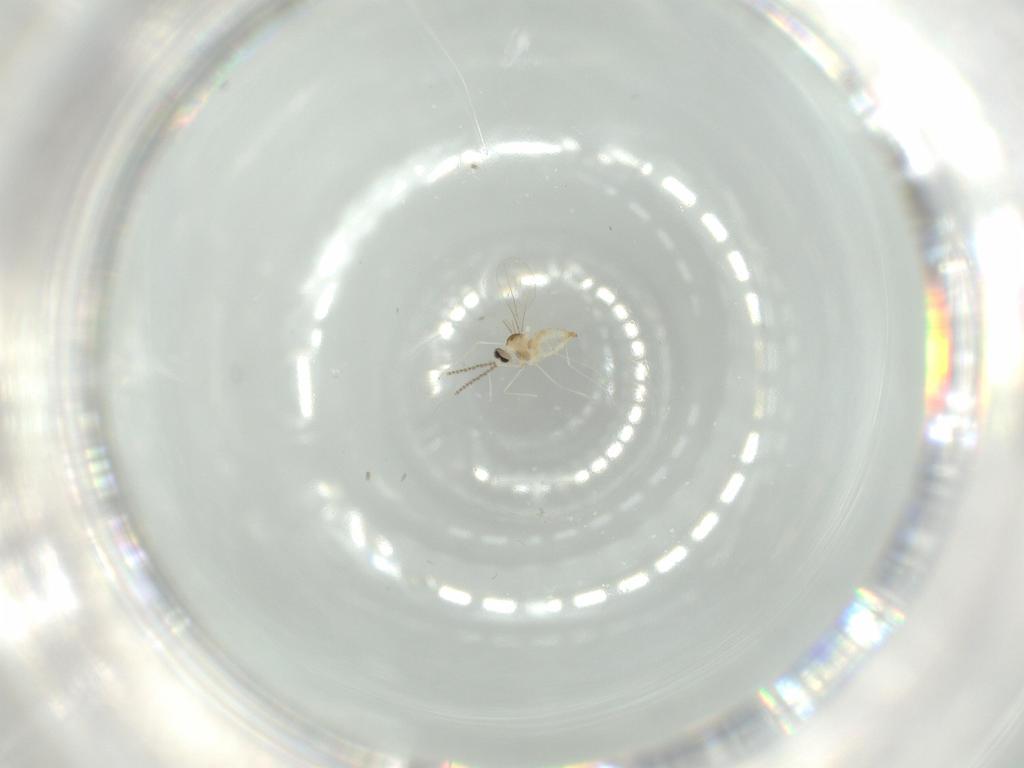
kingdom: Animalia
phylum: Arthropoda
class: Insecta
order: Diptera
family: Cecidomyiidae
